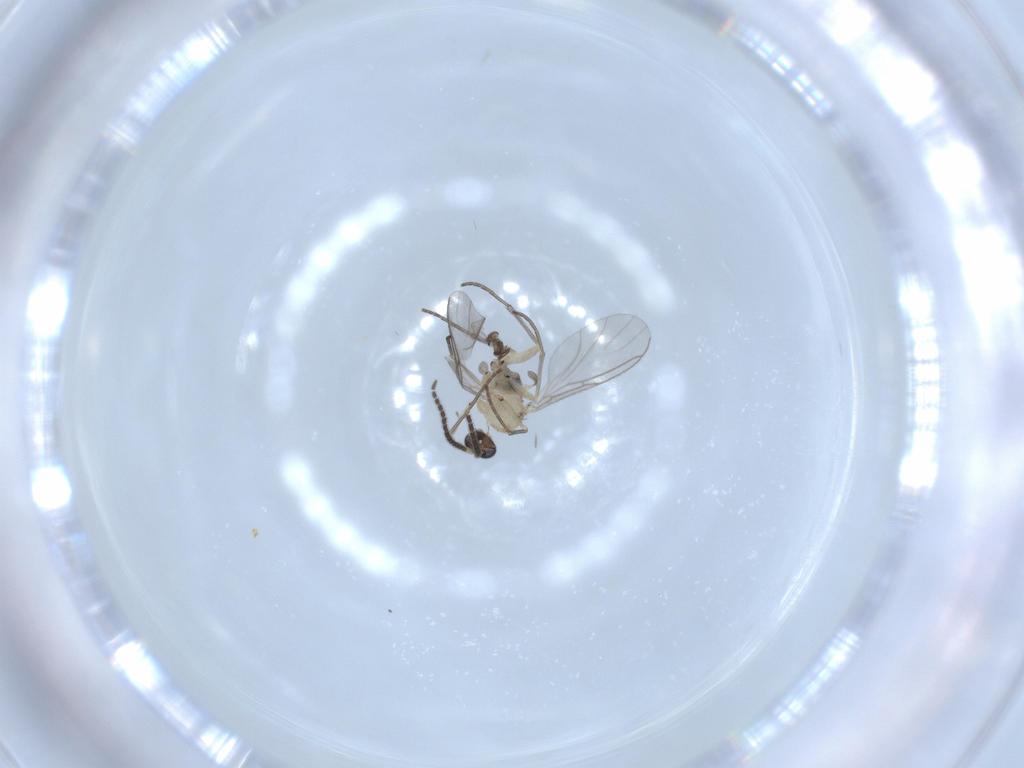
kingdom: Animalia
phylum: Arthropoda
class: Insecta
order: Diptera
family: Sciaridae
